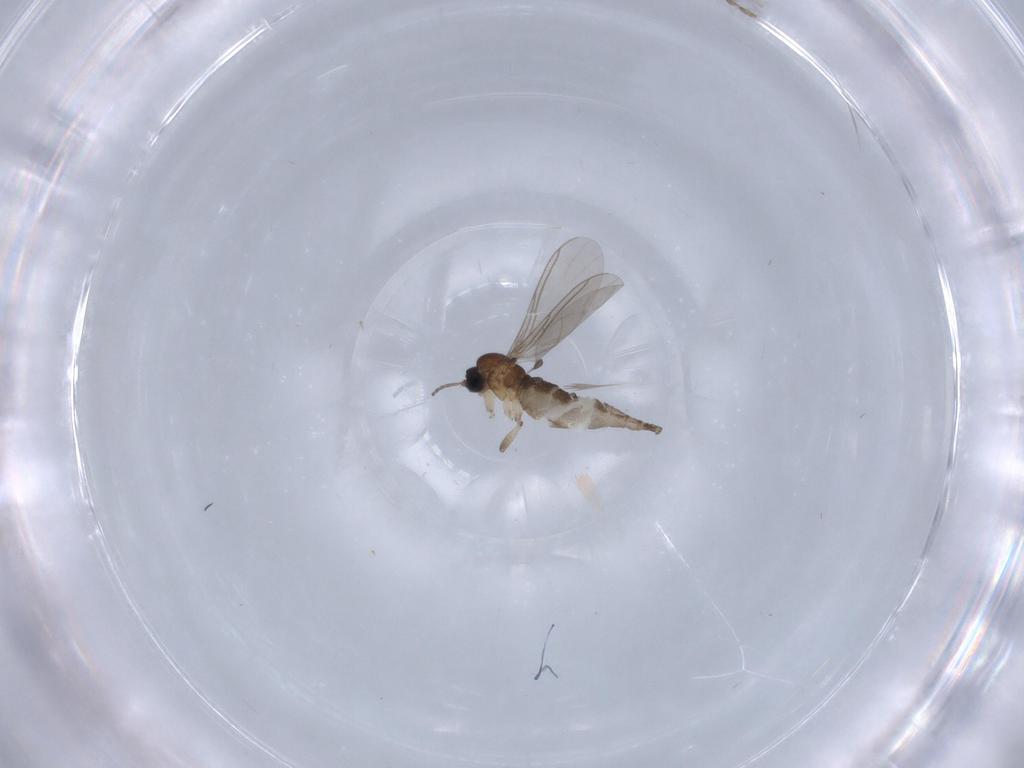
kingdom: Animalia
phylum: Arthropoda
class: Insecta
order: Diptera
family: Sciaridae
